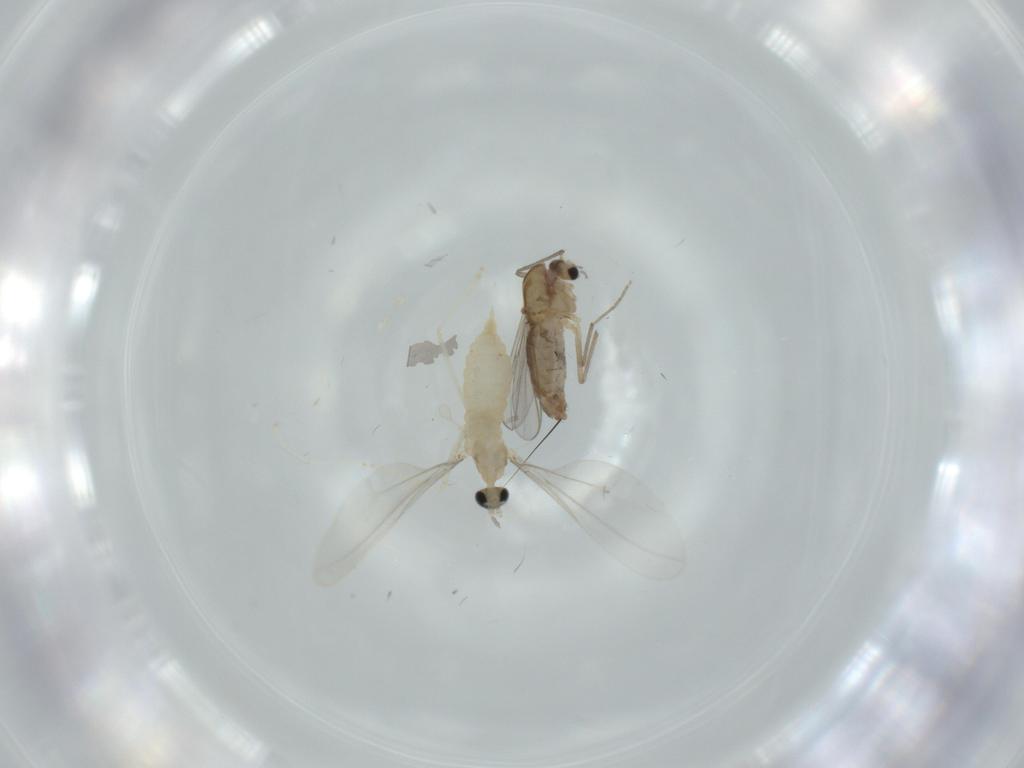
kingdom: Animalia
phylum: Arthropoda
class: Insecta
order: Diptera
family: Cecidomyiidae
